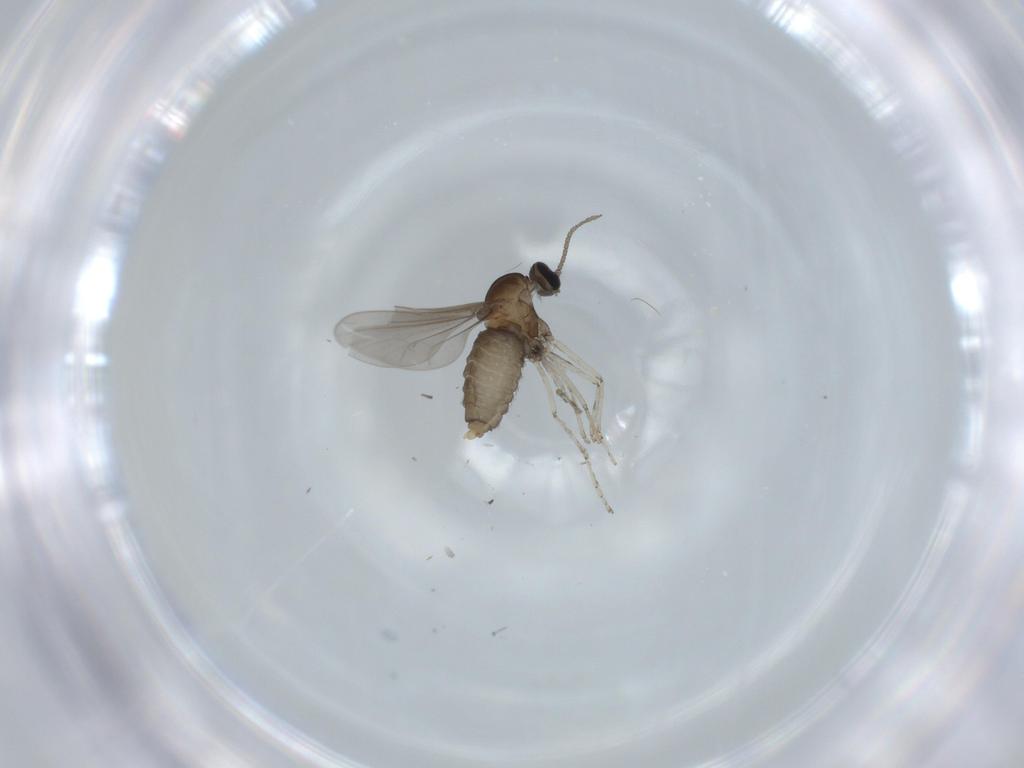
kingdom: Animalia
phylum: Arthropoda
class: Insecta
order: Diptera
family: Cecidomyiidae
